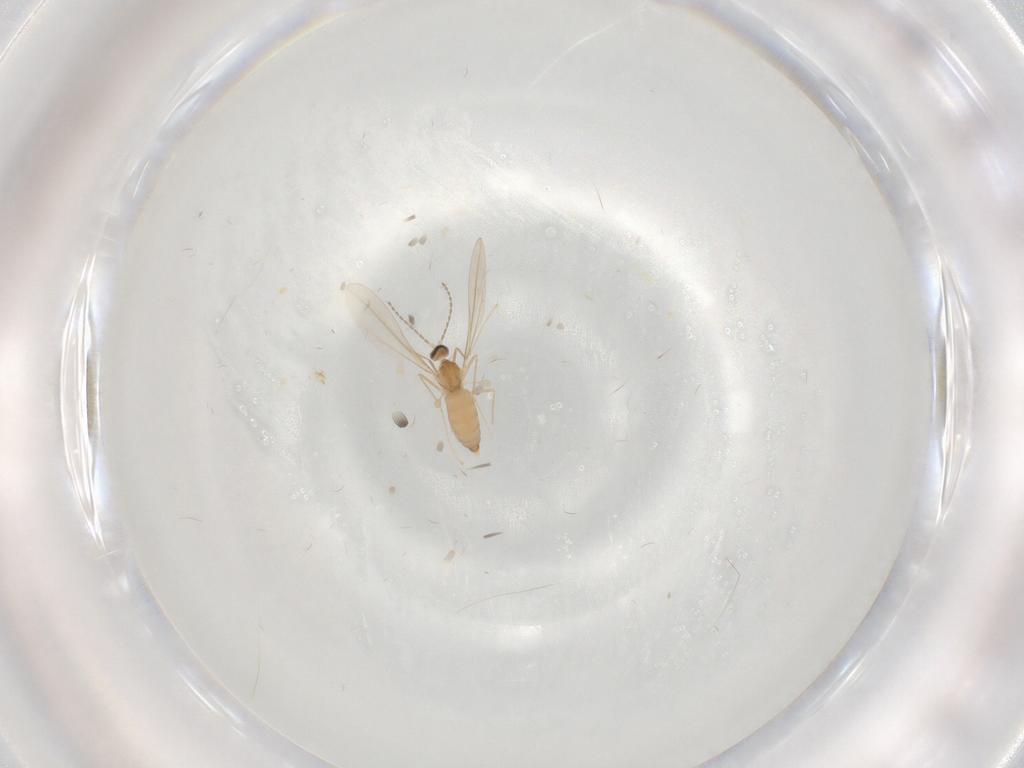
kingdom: Animalia
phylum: Arthropoda
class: Insecta
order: Diptera
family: Cecidomyiidae
